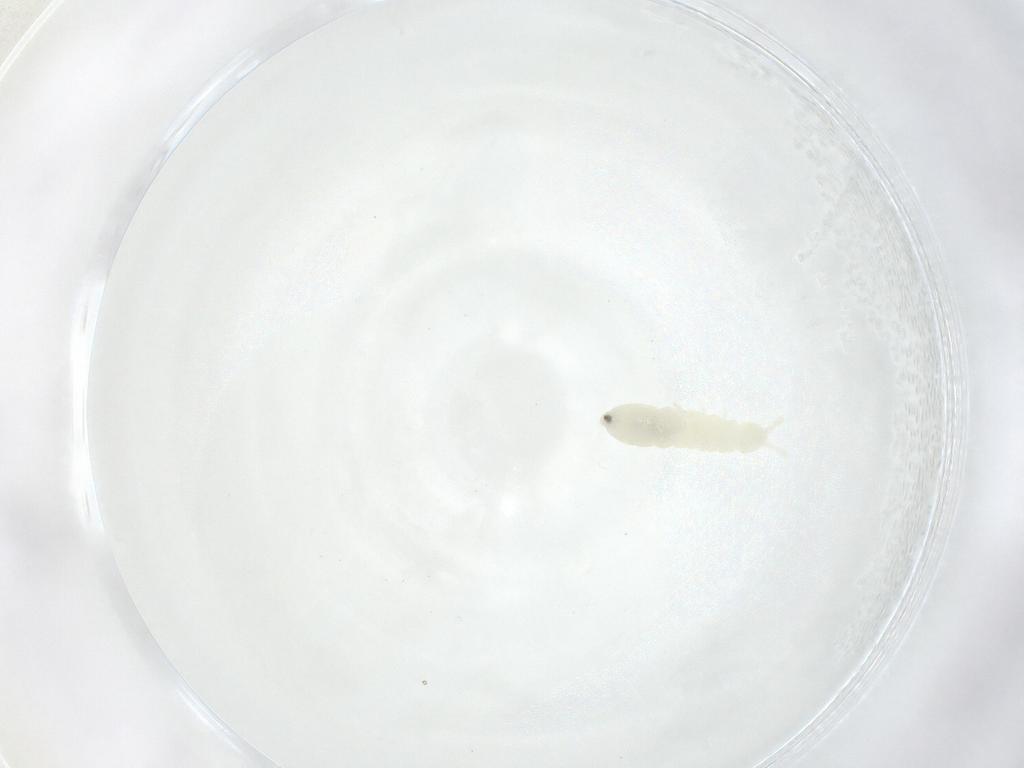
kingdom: Animalia
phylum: Arthropoda
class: Collembola
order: Poduromorpha
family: Onychiuridae
